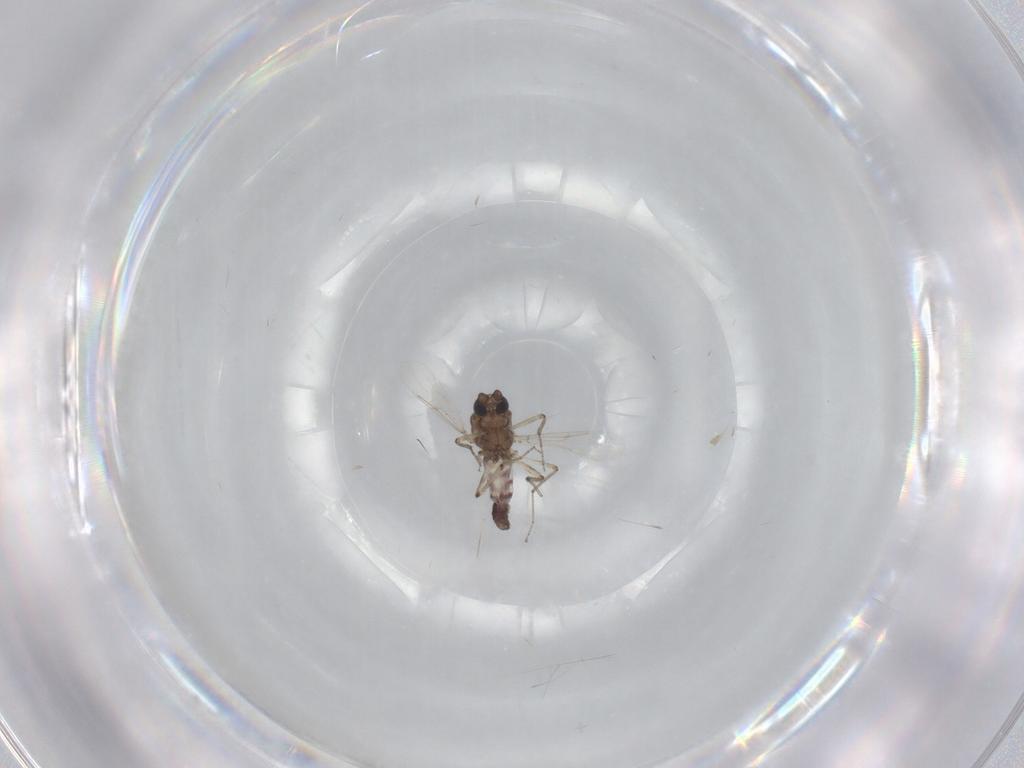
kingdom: Animalia
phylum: Arthropoda
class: Insecta
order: Diptera
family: Ceratopogonidae
